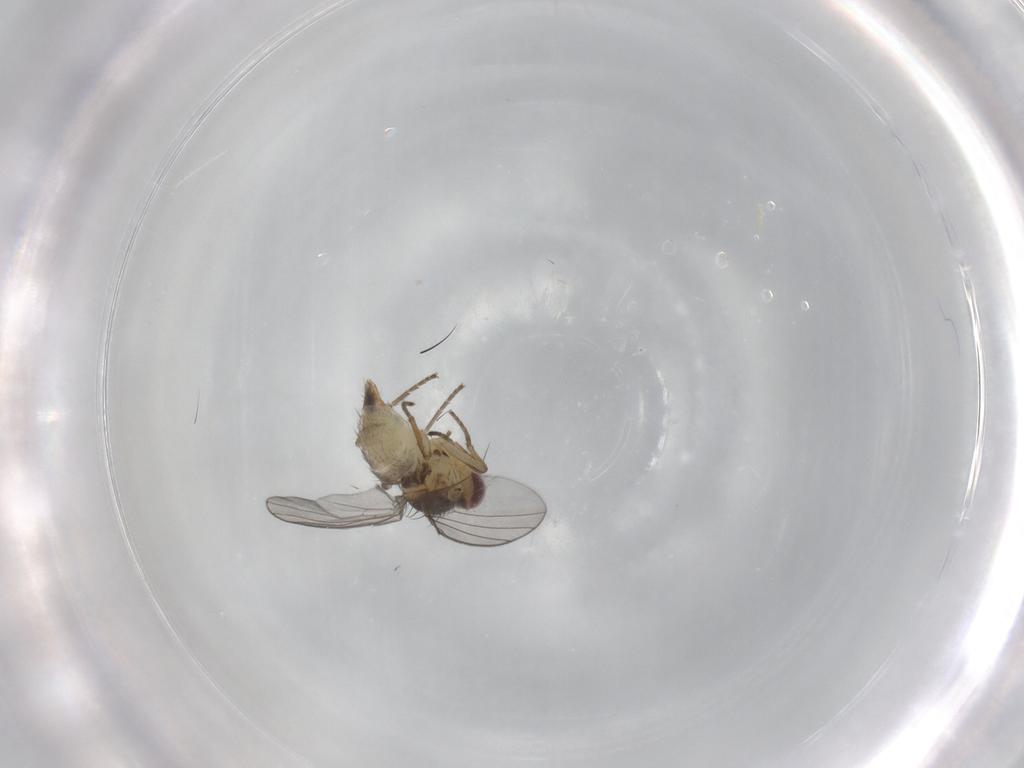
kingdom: Animalia
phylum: Arthropoda
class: Insecta
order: Diptera
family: Agromyzidae
